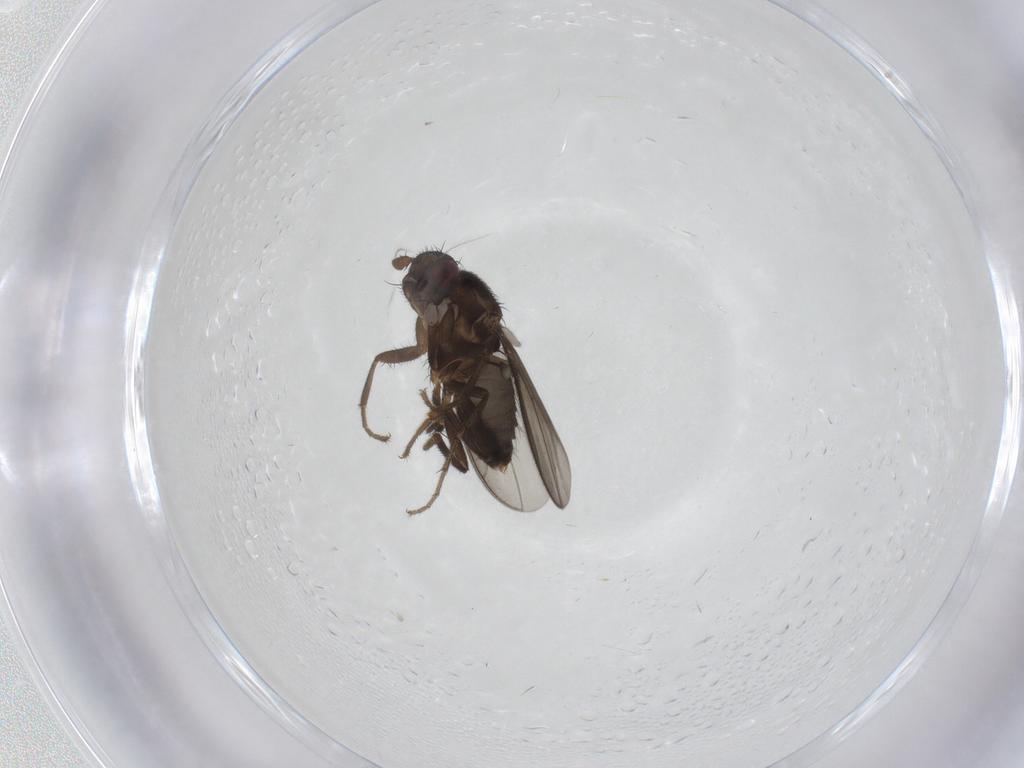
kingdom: Animalia
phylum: Arthropoda
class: Insecta
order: Diptera
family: Sphaeroceridae
